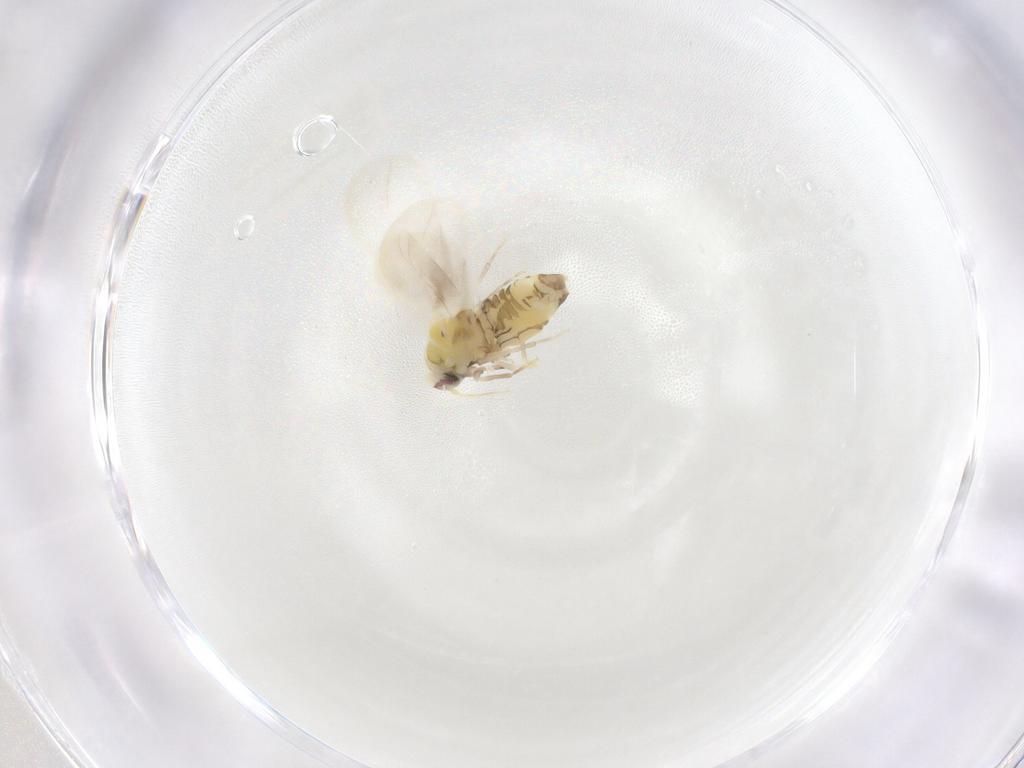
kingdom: Animalia
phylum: Arthropoda
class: Insecta
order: Hemiptera
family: Aleyrodidae
